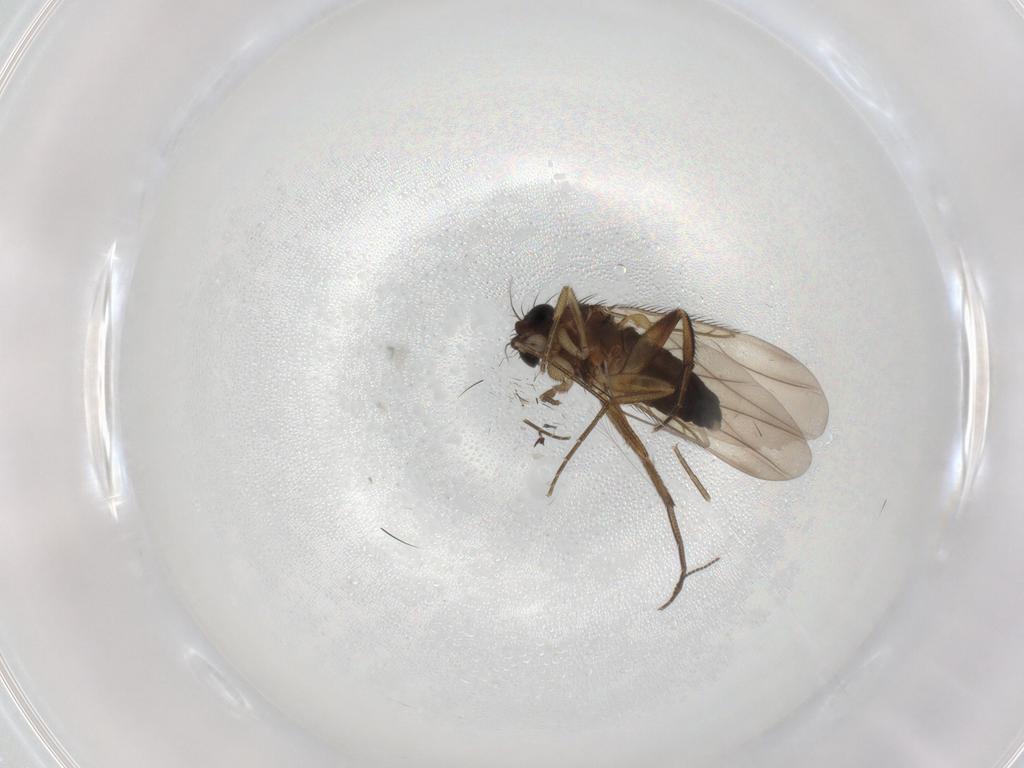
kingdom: Animalia
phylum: Arthropoda
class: Insecta
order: Diptera
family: Phoridae
